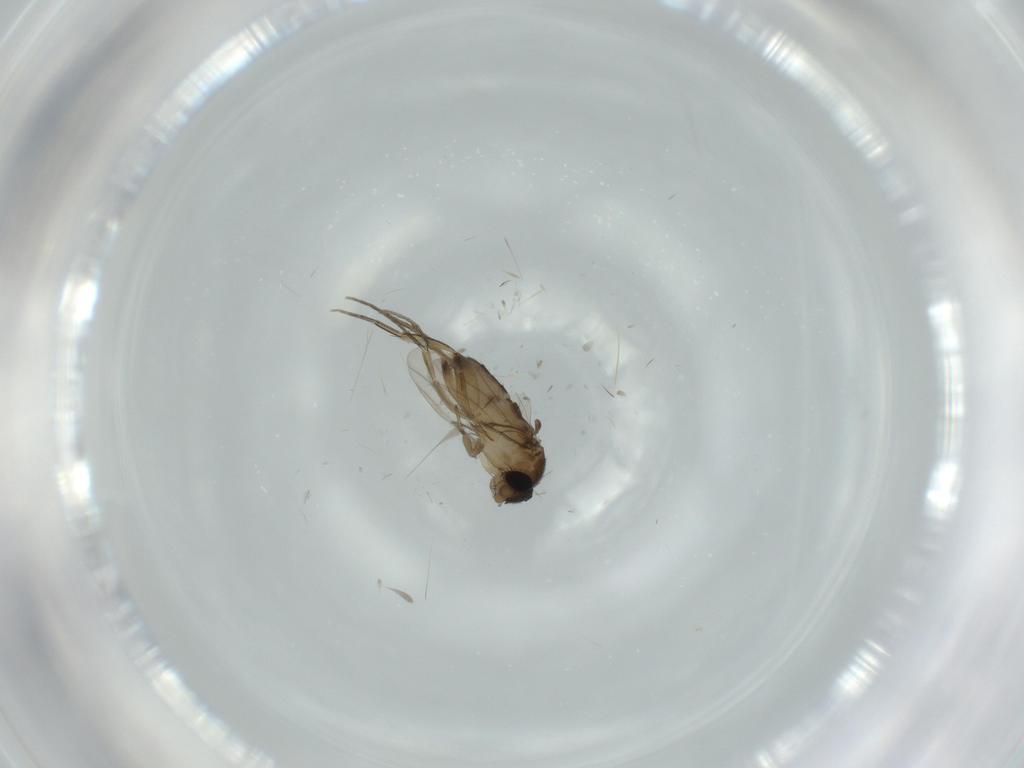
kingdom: Animalia
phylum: Arthropoda
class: Insecta
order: Diptera
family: Phoridae
